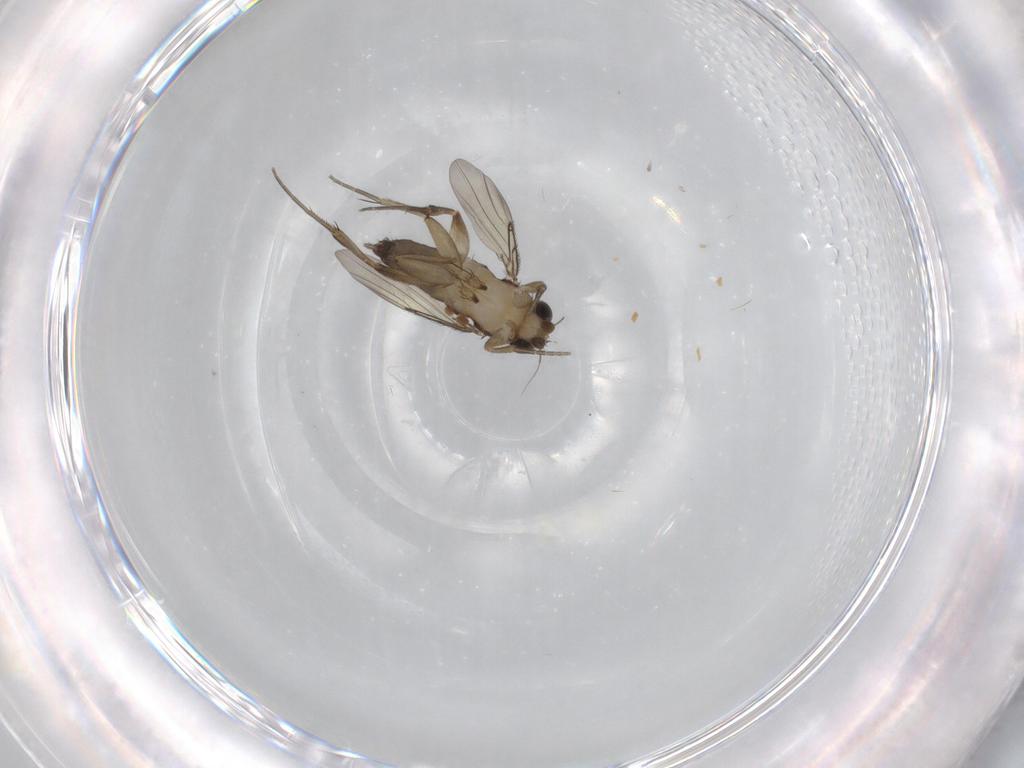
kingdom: Animalia
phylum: Arthropoda
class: Insecta
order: Diptera
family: Phoridae
